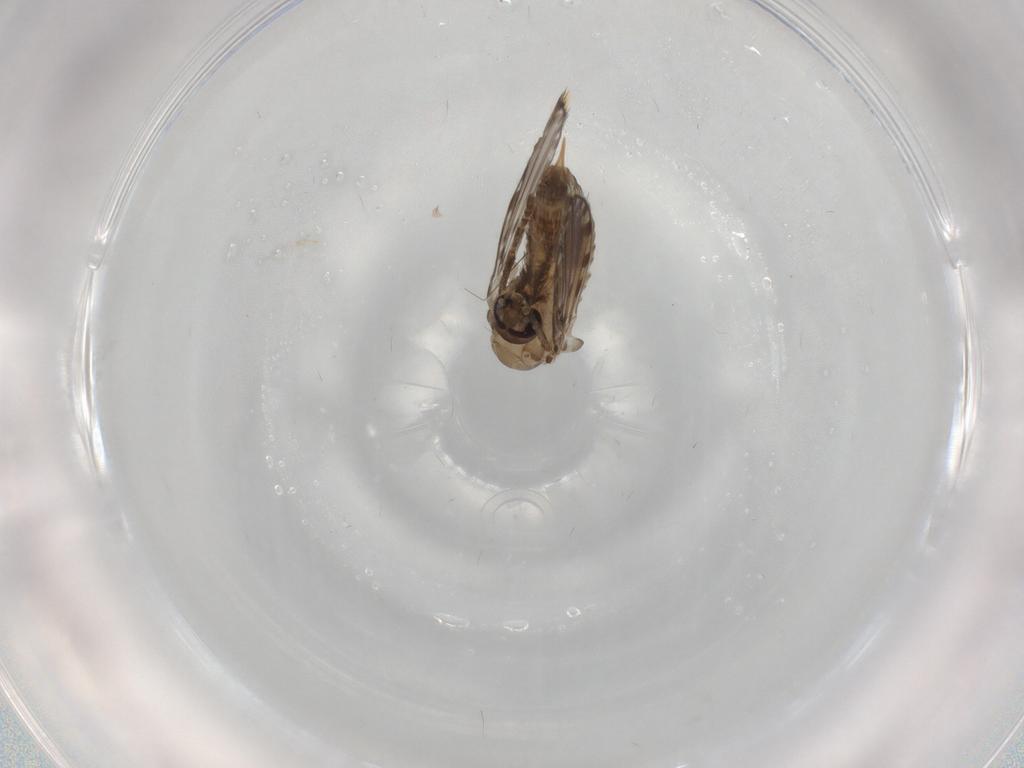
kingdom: Animalia
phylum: Arthropoda
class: Insecta
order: Diptera
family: Psychodidae
